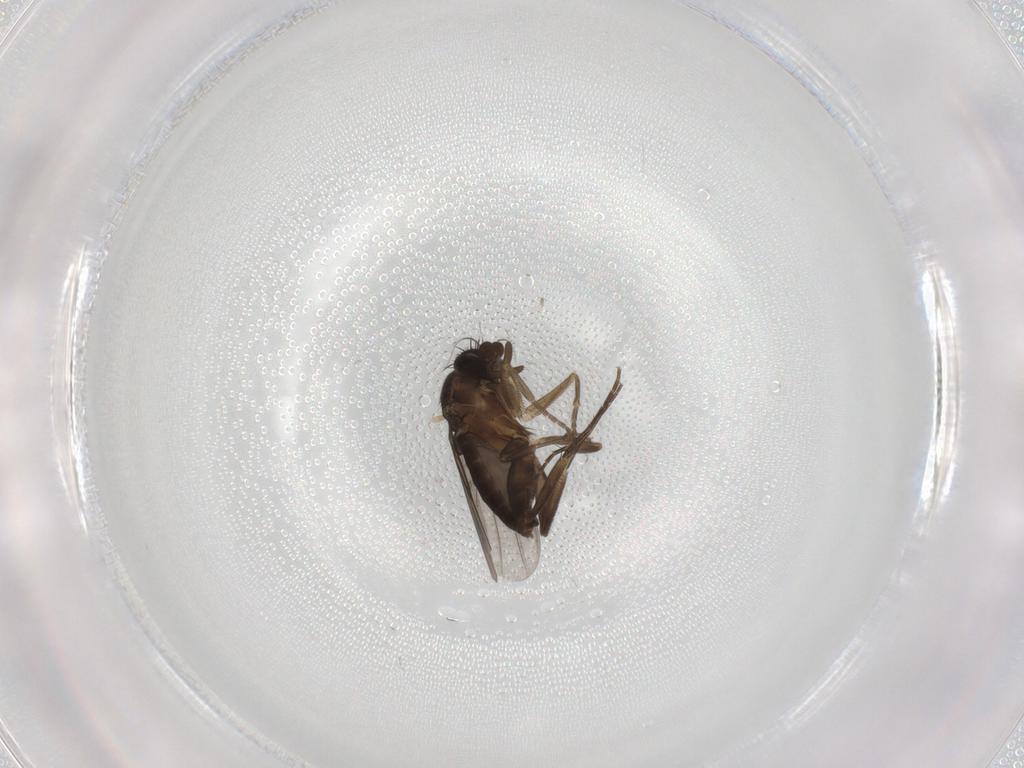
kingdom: Animalia
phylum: Arthropoda
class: Insecta
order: Diptera
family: Phoridae
